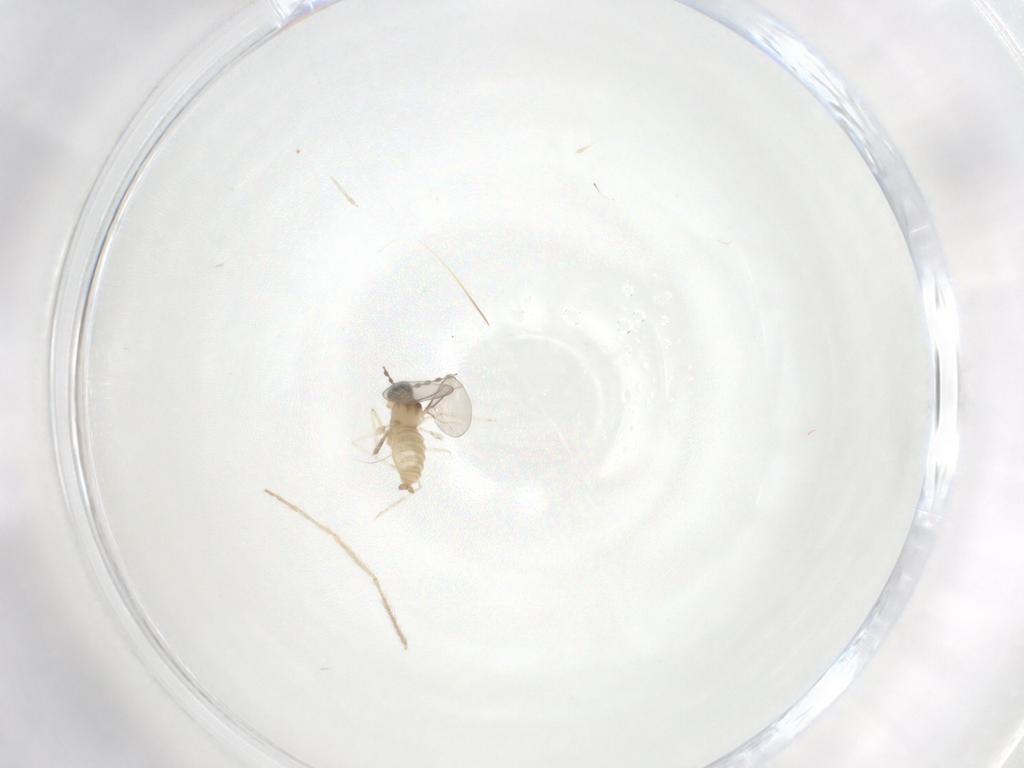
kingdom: Animalia
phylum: Arthropoda
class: Insecta
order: Diptera
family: Cecidomyiidae
